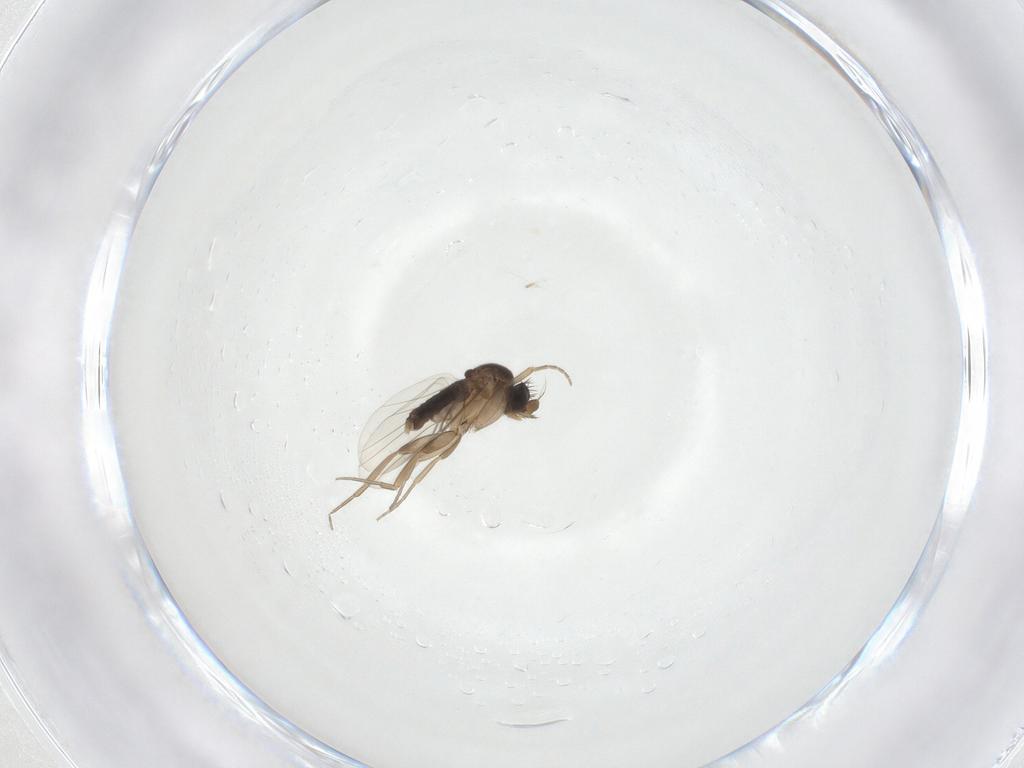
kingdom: Animalia
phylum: Arthropoda
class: Insecta
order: Diptera
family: Phoridae
